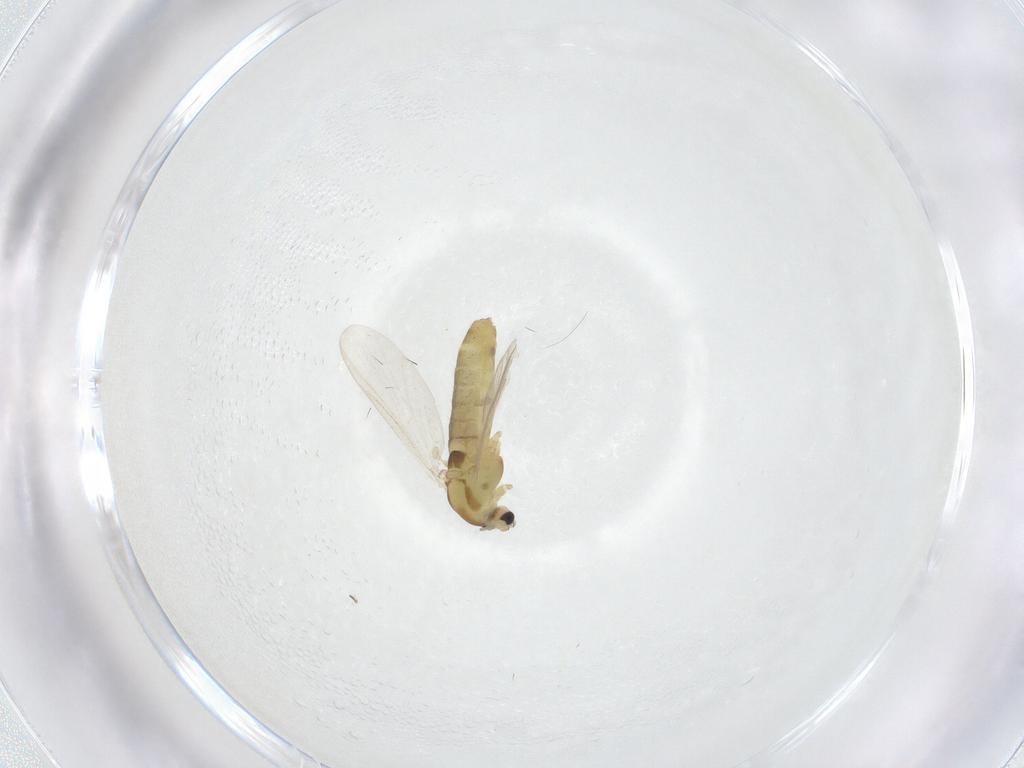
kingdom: Animalia
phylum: Arthropoda
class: Insecta
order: Diptera
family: Chironomidae
